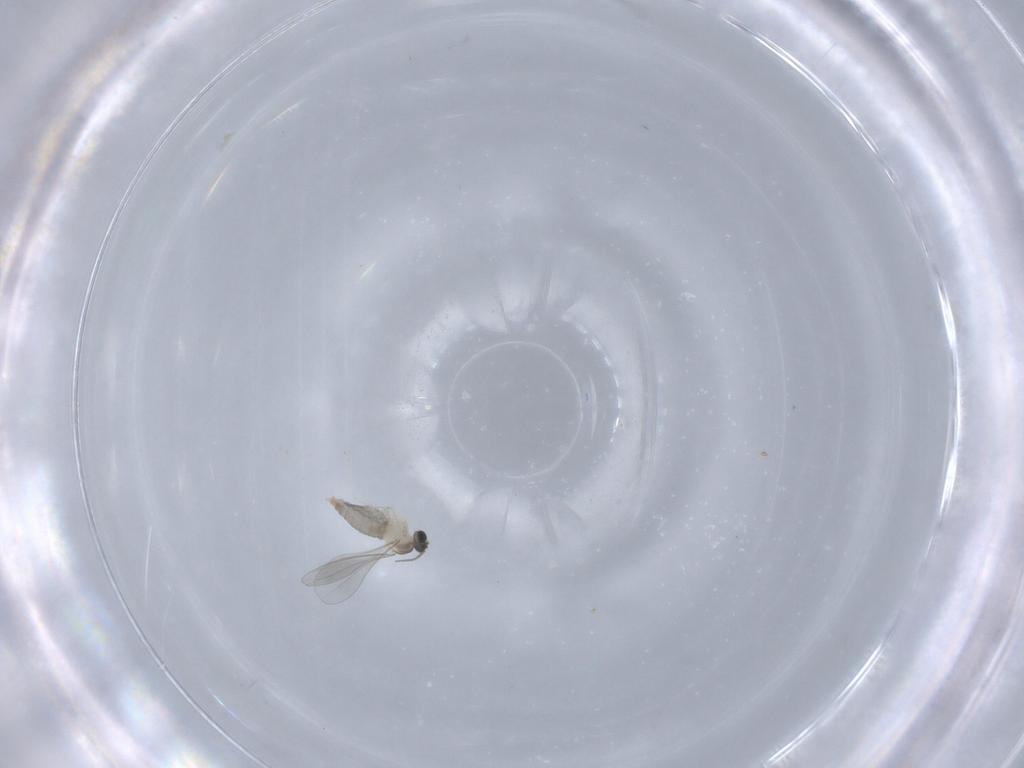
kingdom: Animalia
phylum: Arthropoda
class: Insecta
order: Diptera
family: Cecidomyiidae
